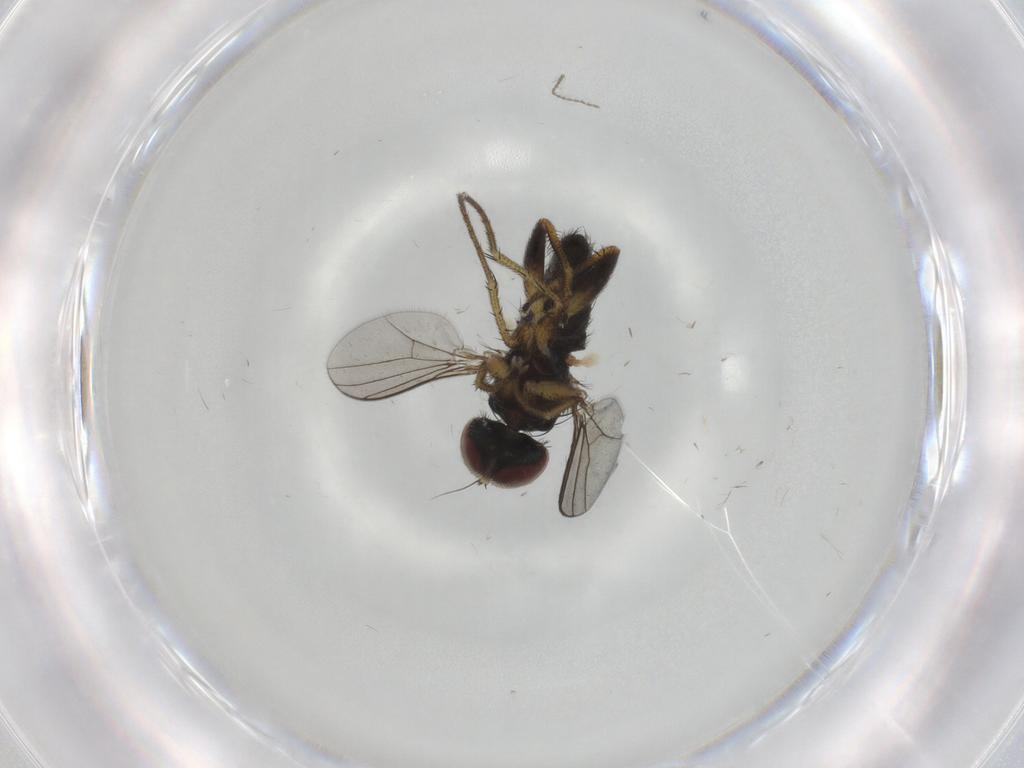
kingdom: Animalia
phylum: Arthropoda
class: Insecta
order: Diptera
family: Dolichopodidae
